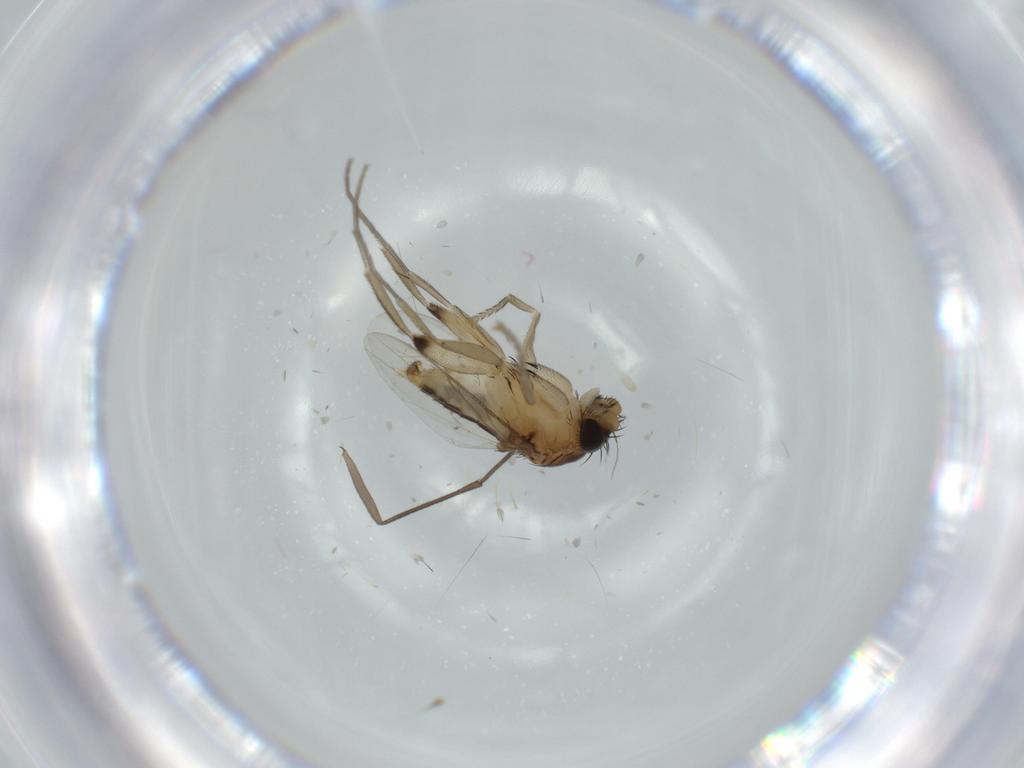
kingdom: Animalia
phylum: Arthropoda
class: Insecta
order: Diptera
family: Phoridae
